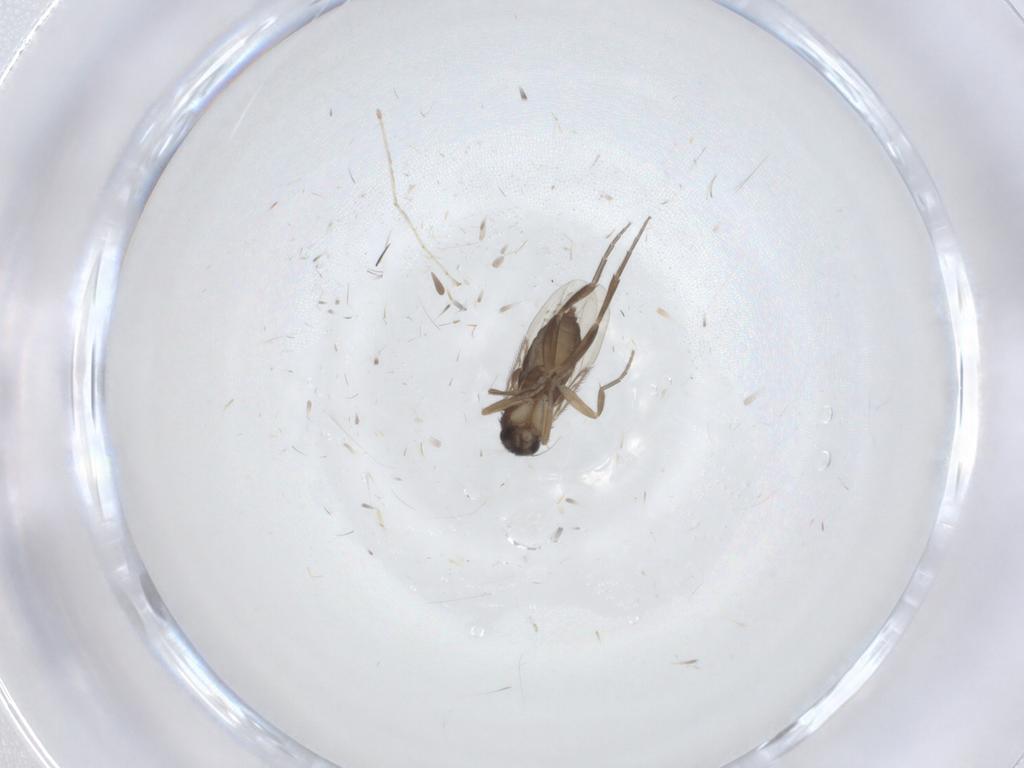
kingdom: Animalia
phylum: Arthropoda
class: Insecta
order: Diptera
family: Phoridae
